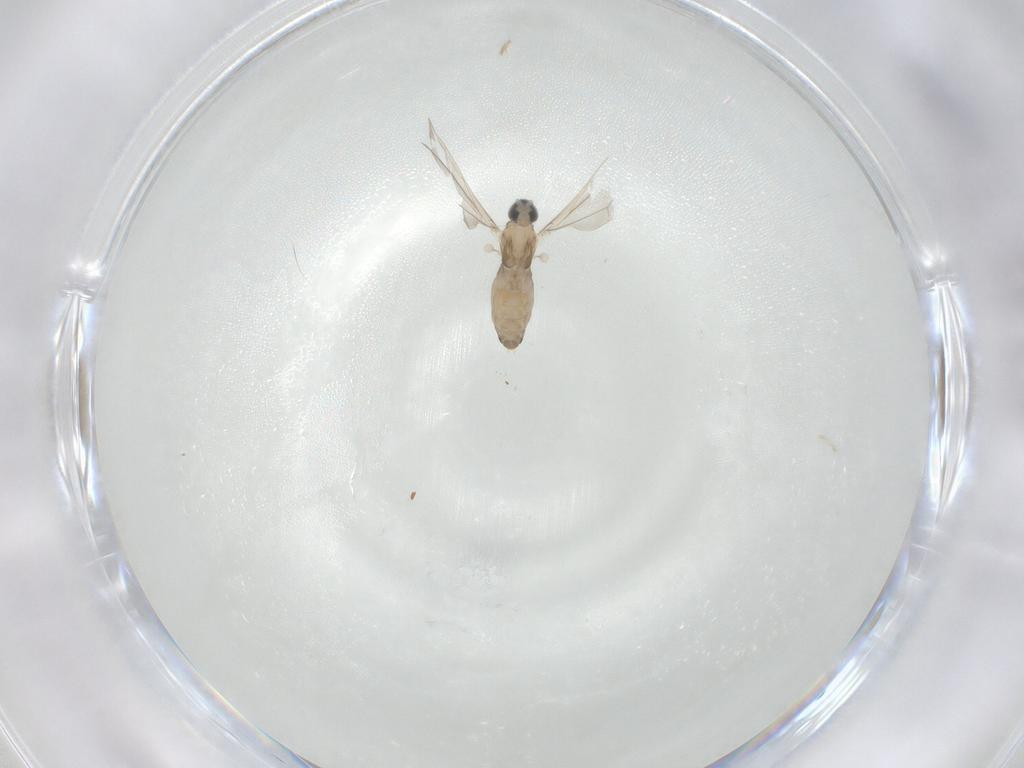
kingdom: Animalia
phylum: Arthropoda
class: Insecta
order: Diptera
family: Cecidomyiidae
